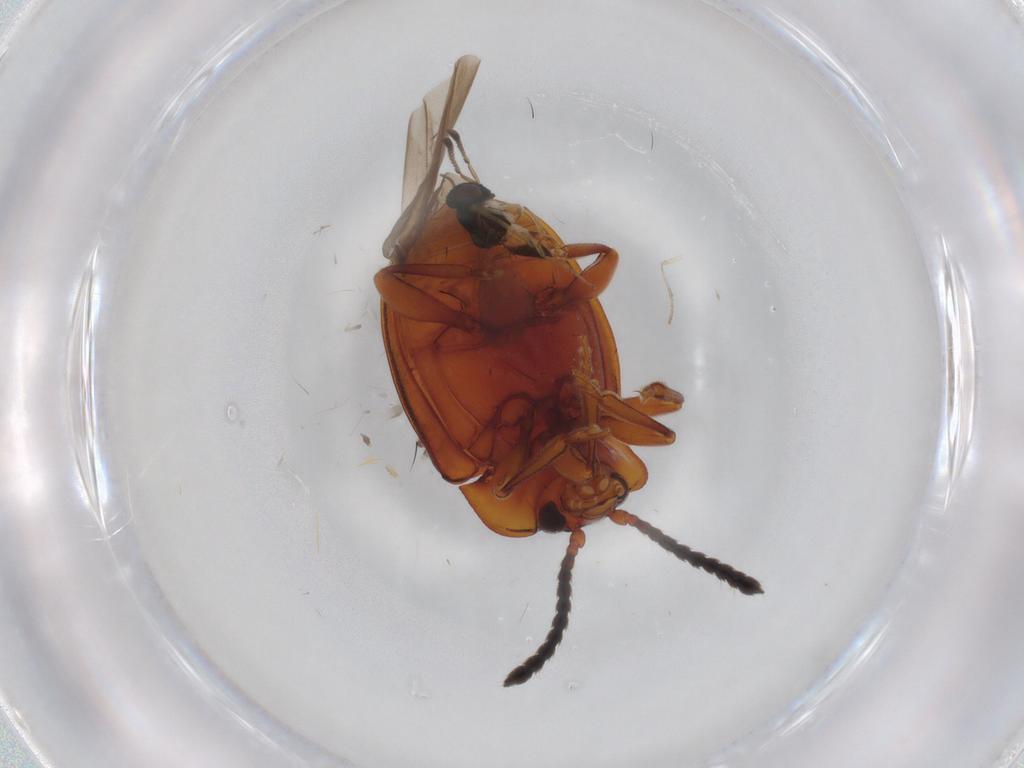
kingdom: Animalia
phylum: Arthropoda
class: Insecta
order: Coleoptera
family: Endomychidae
